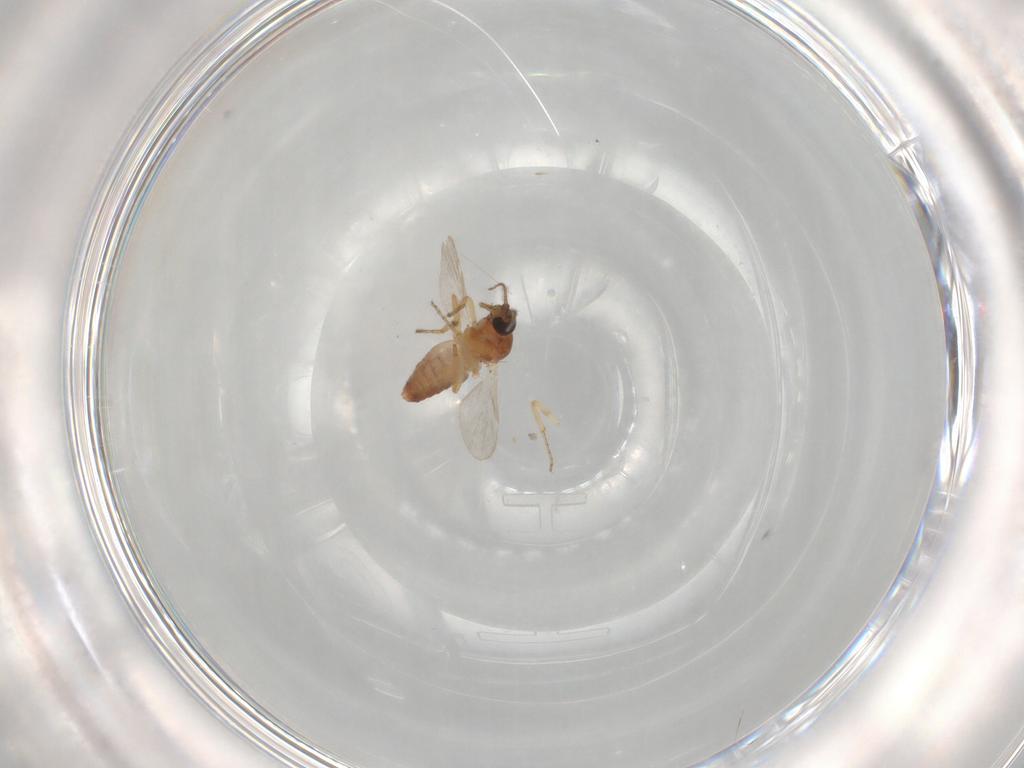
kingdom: Animalia
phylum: Arthropoda
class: Insecta
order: Diptera
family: Ceratopogonidae
